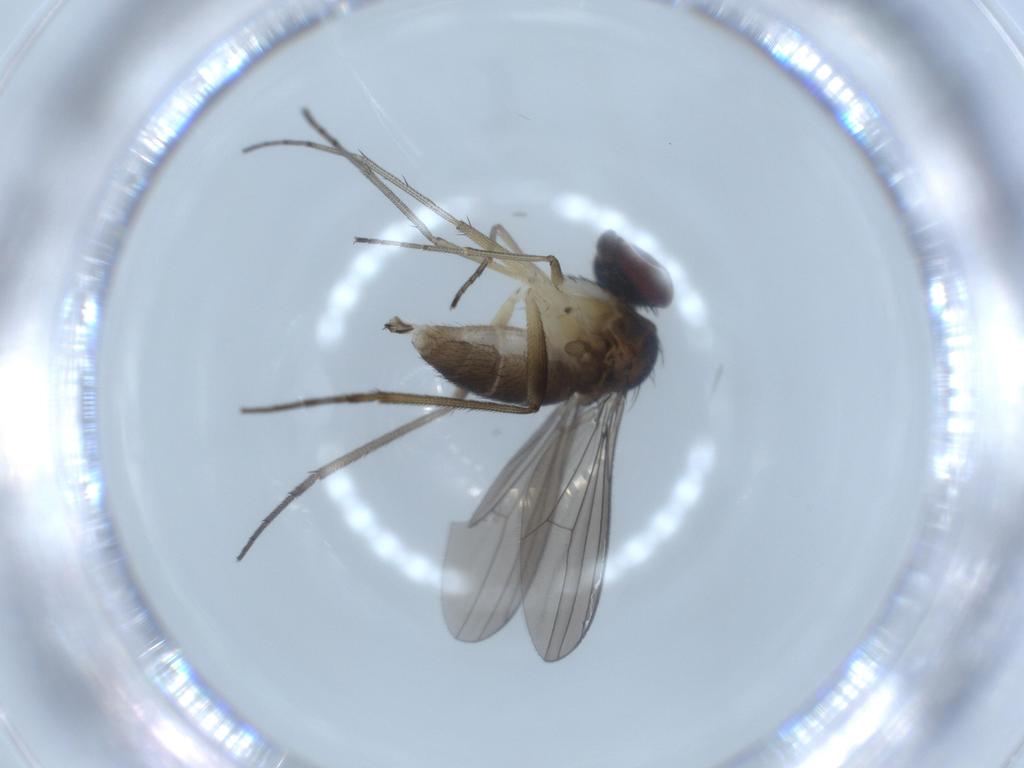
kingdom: Animalia
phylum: Arthropoda
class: Insecta
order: Diptera
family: Dolichopodidae
